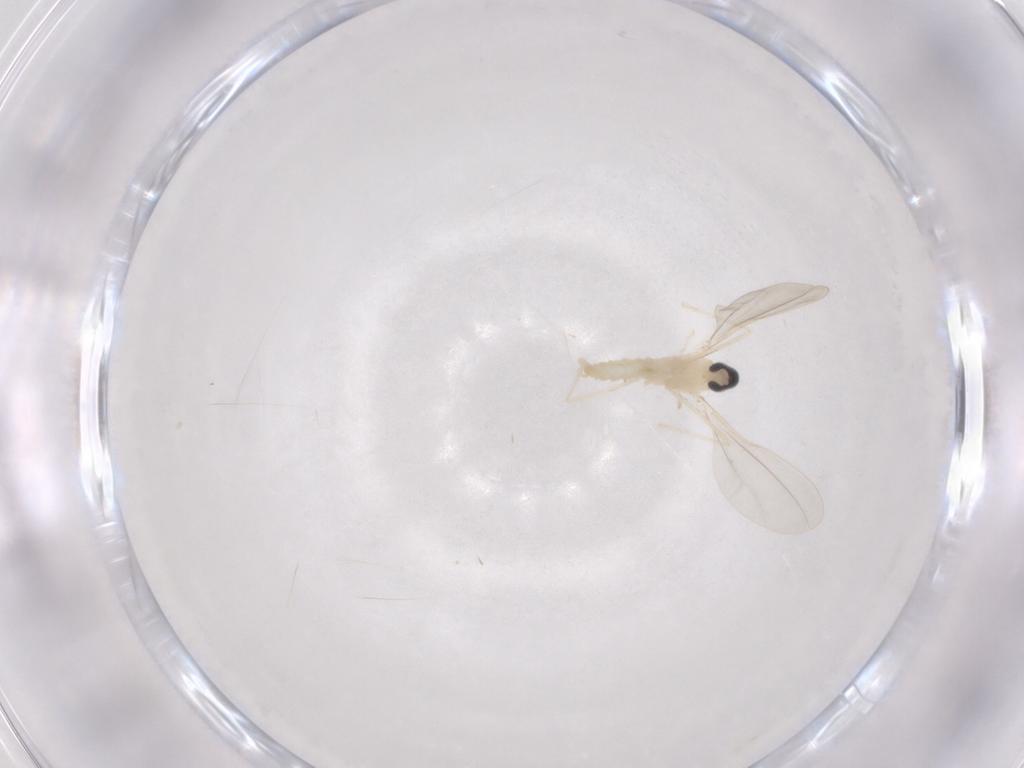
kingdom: Animalia
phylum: Arthropoda
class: Insecta
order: Diptera
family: Cecidomyiidae
